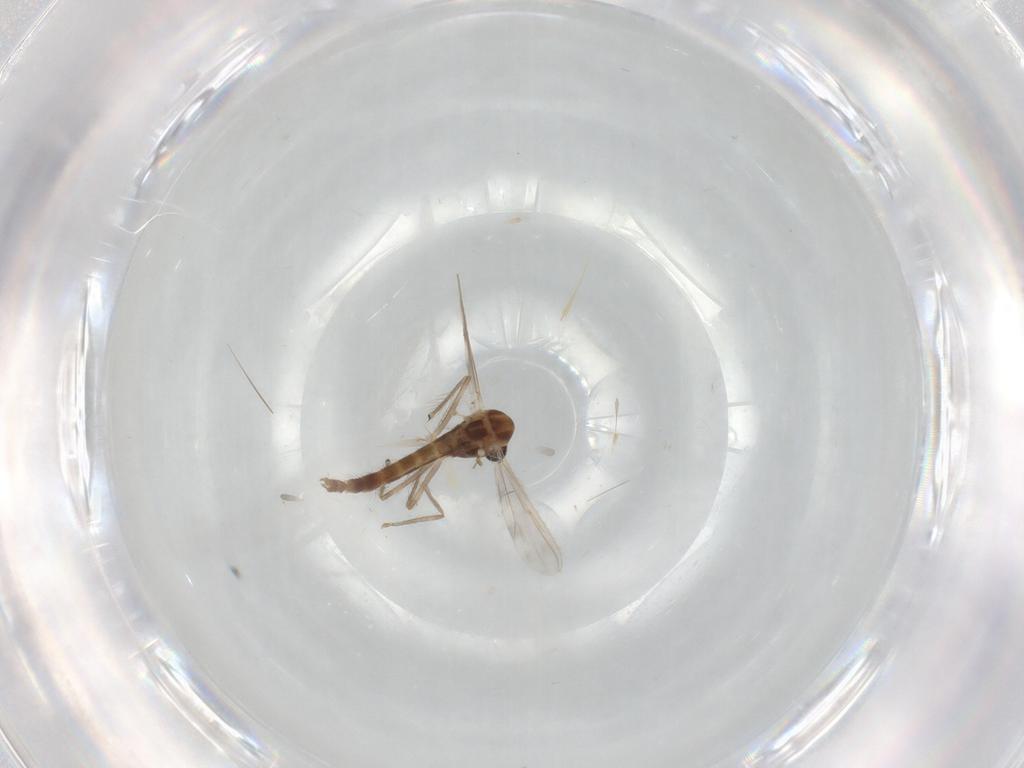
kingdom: Animalia
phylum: Arthropoda
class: Insecta
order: Diptera
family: Chironomidae
